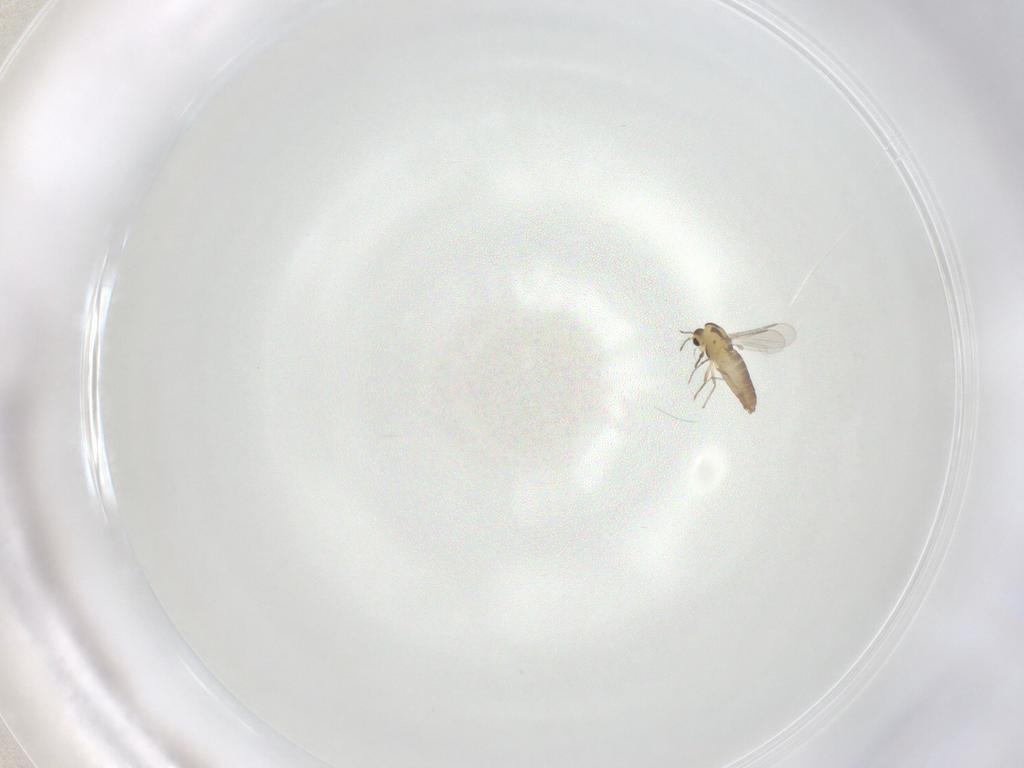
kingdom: Animalia
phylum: Arthropoda
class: Insecta
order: Diptera
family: Chironomidae
